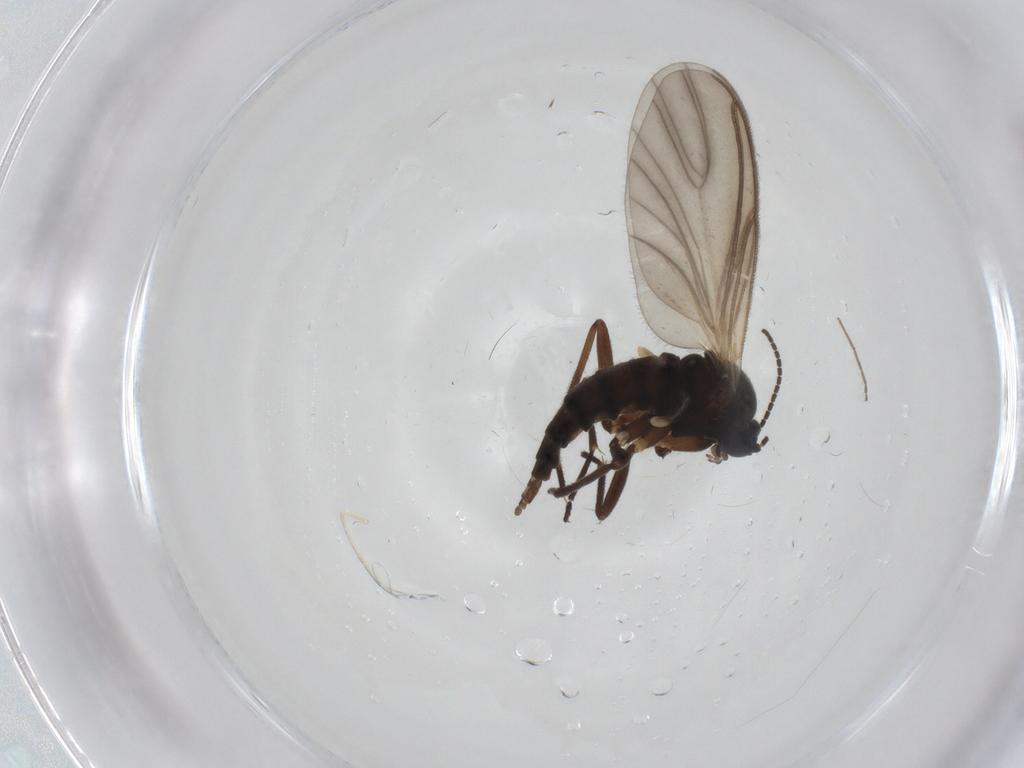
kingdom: Animalia
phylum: Arthropoda
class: Insecta
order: Diptera
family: Sciaridae
